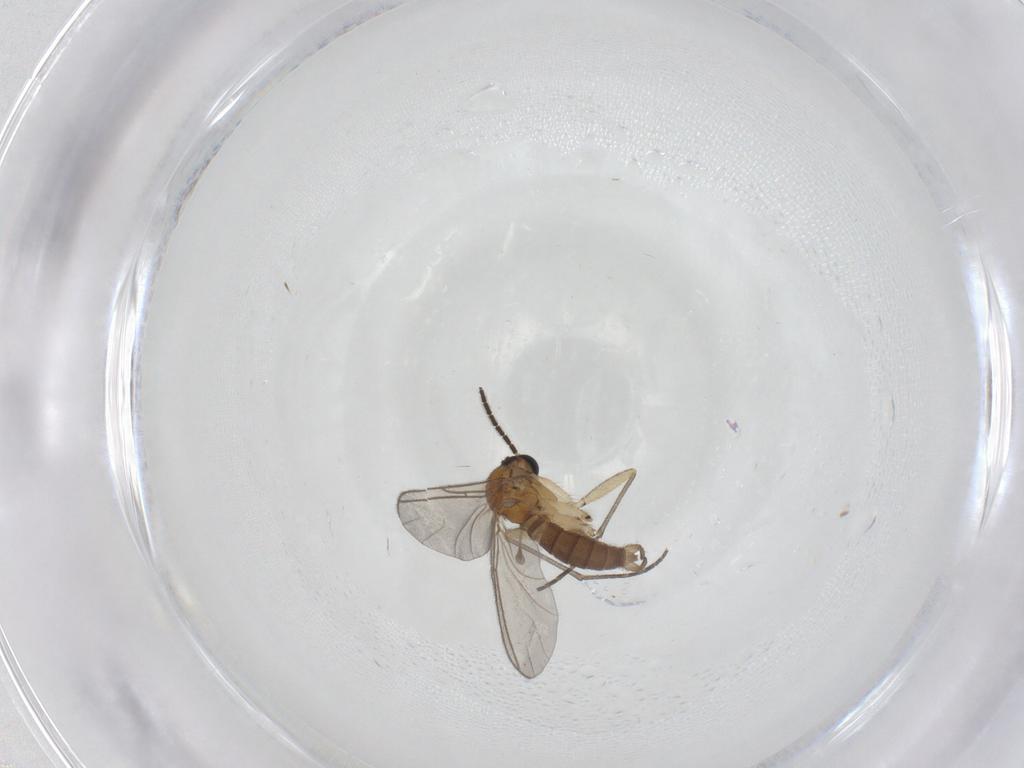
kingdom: Animalia
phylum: Arthropoda
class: Insecta
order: Diptera
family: Sciaridae
